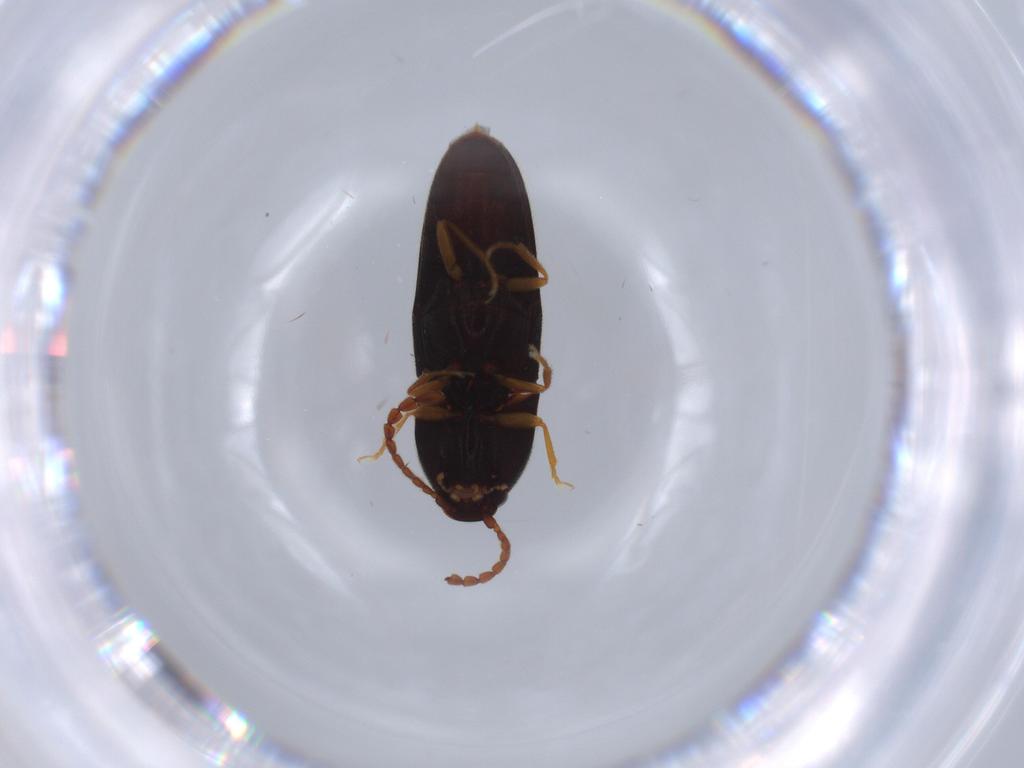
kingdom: Animalia
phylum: Arthropoda
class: Insecta
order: Coleoptera
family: Elateridae
